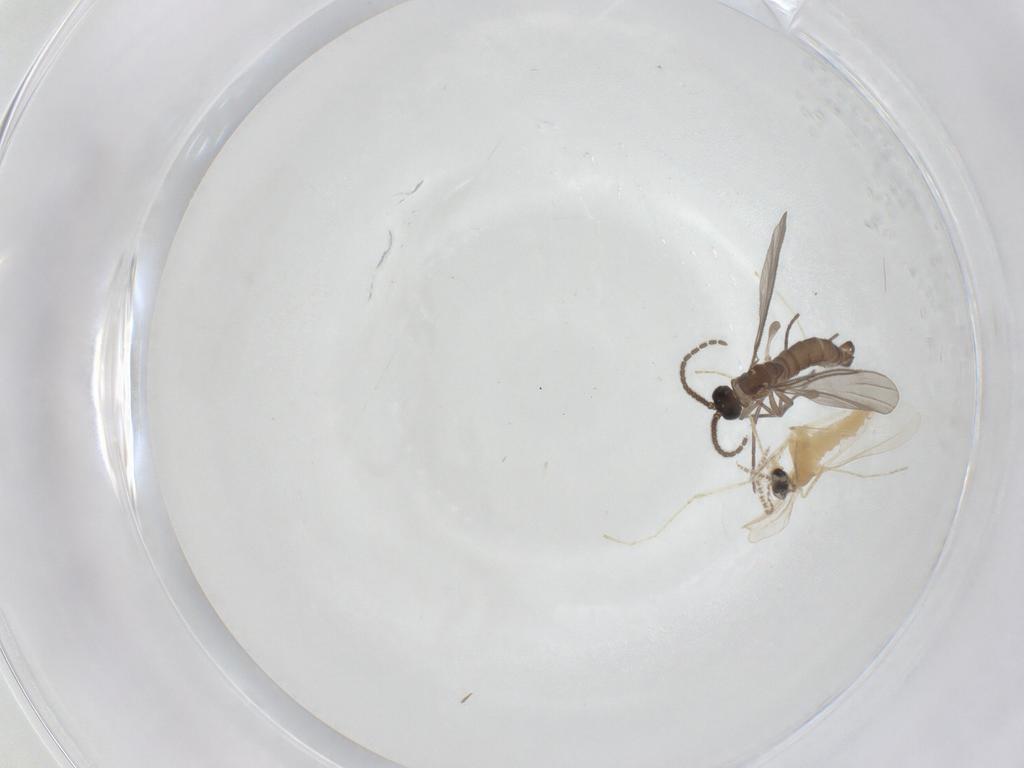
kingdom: Animalia
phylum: Arthropoda
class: Insecta
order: Diptera
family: Sciaridae
